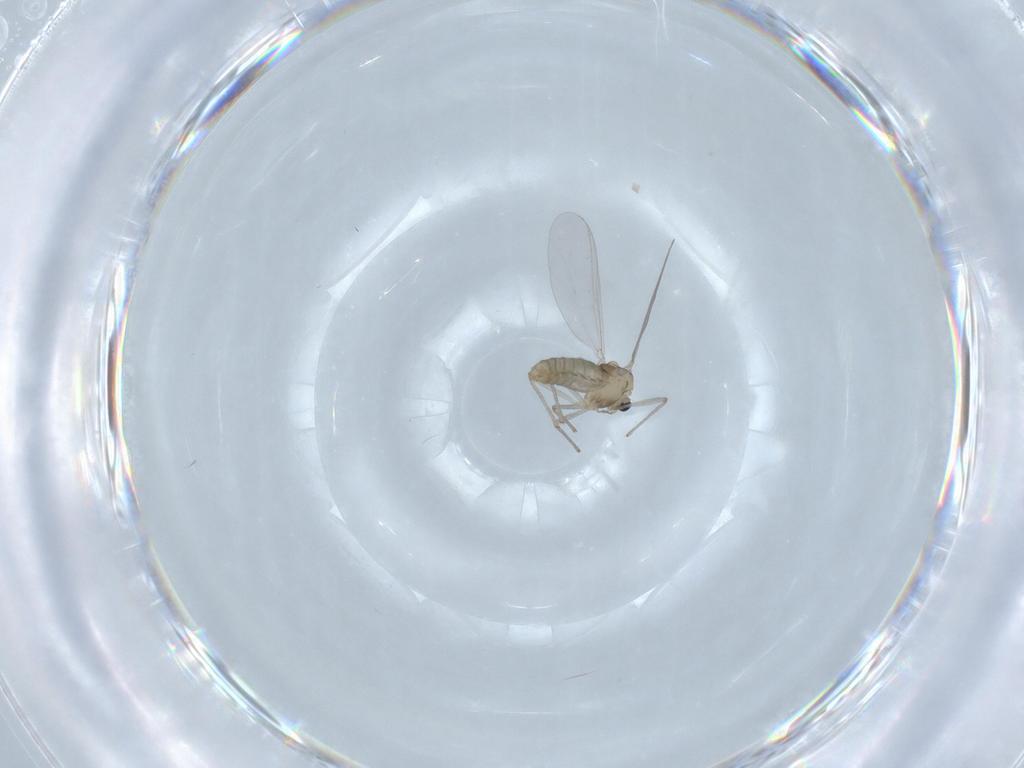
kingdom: Animalia
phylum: Arthropoda
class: Insecta
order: Diptera
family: Chironomidae
